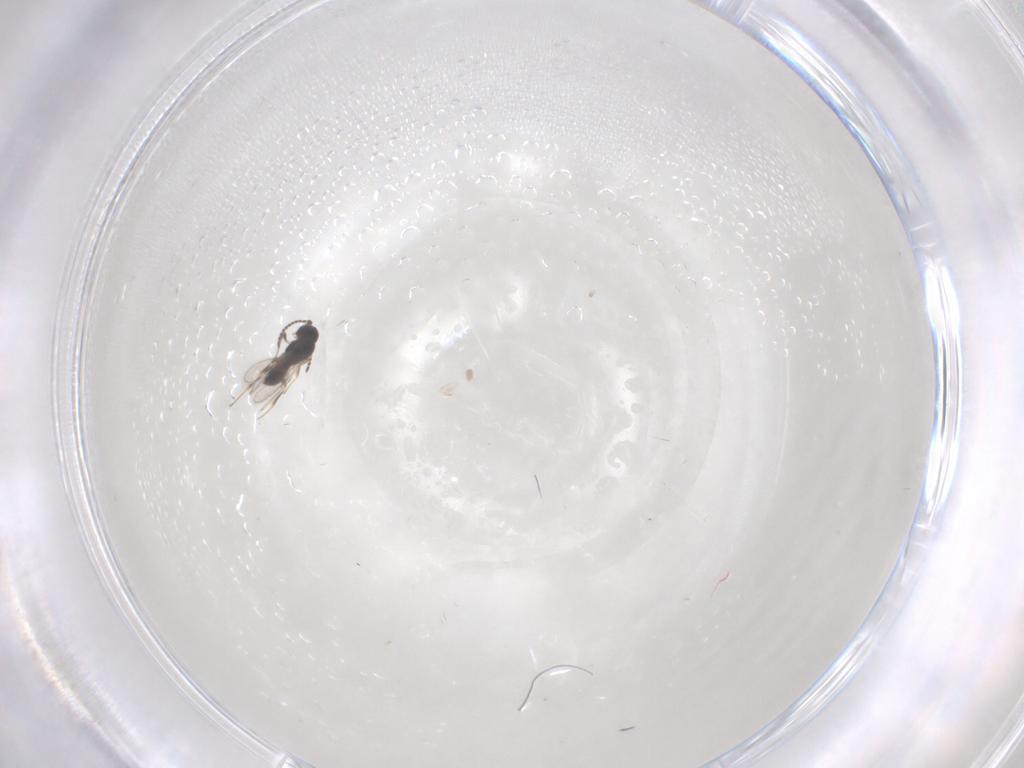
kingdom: Animalia
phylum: Arthropoda
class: Insecta
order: Hymenoptera
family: Scelionidae
